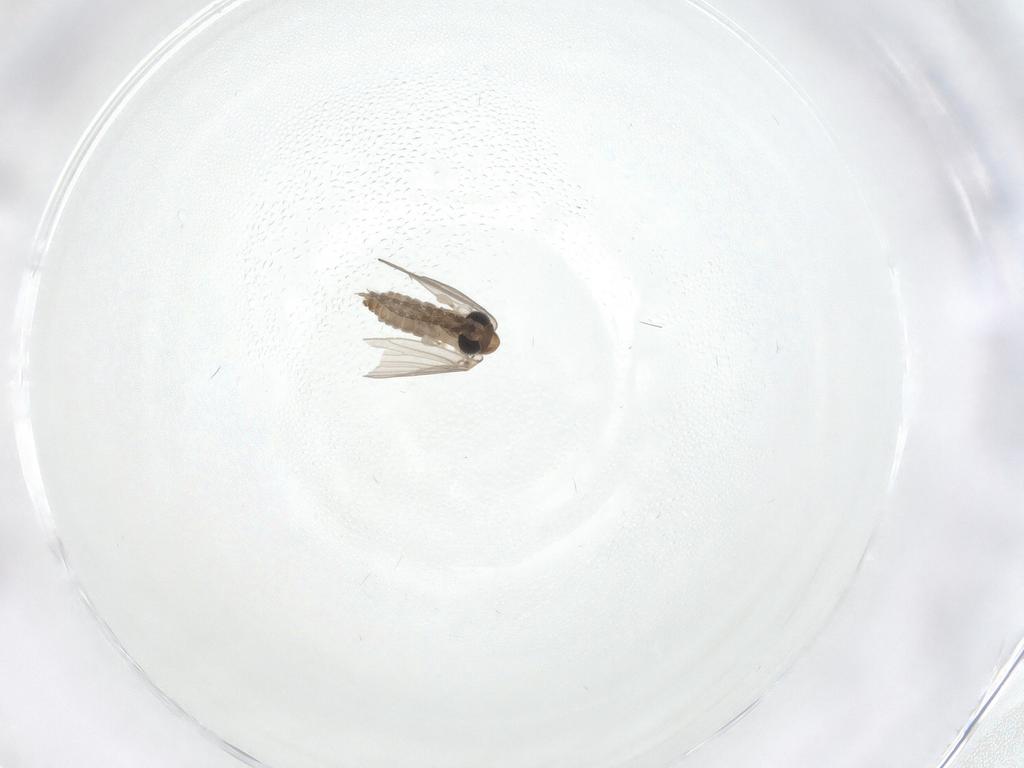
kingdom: Animalia
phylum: Arthropoda
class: Insecta
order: Diptera
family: Psychodidae
